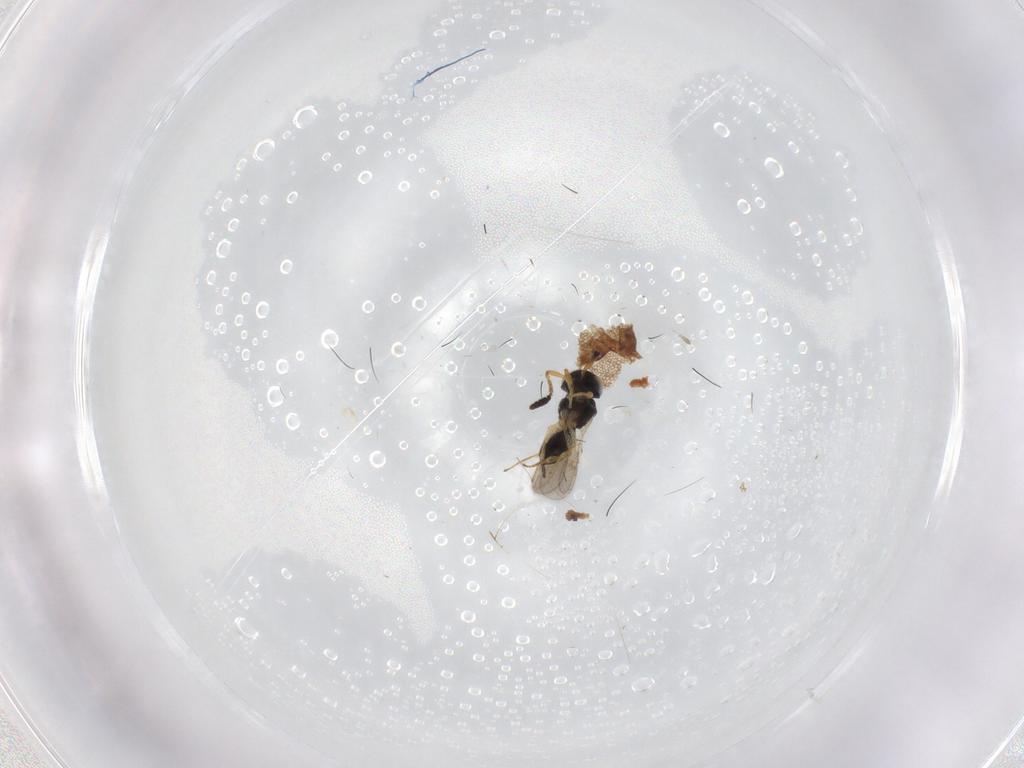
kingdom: Animalia
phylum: Arthropoda
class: Insecta
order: Hymenoptera
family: Scelionidae
